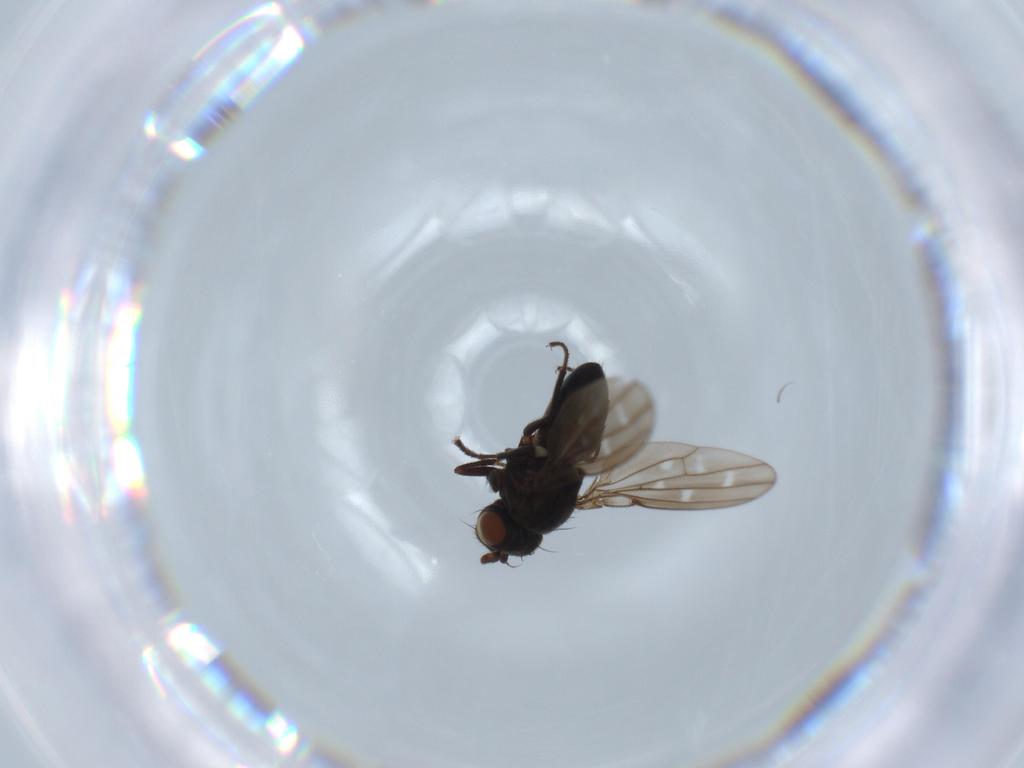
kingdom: Animalia
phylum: Arthropoda
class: Insecta
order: Diptera
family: Ephydridae
